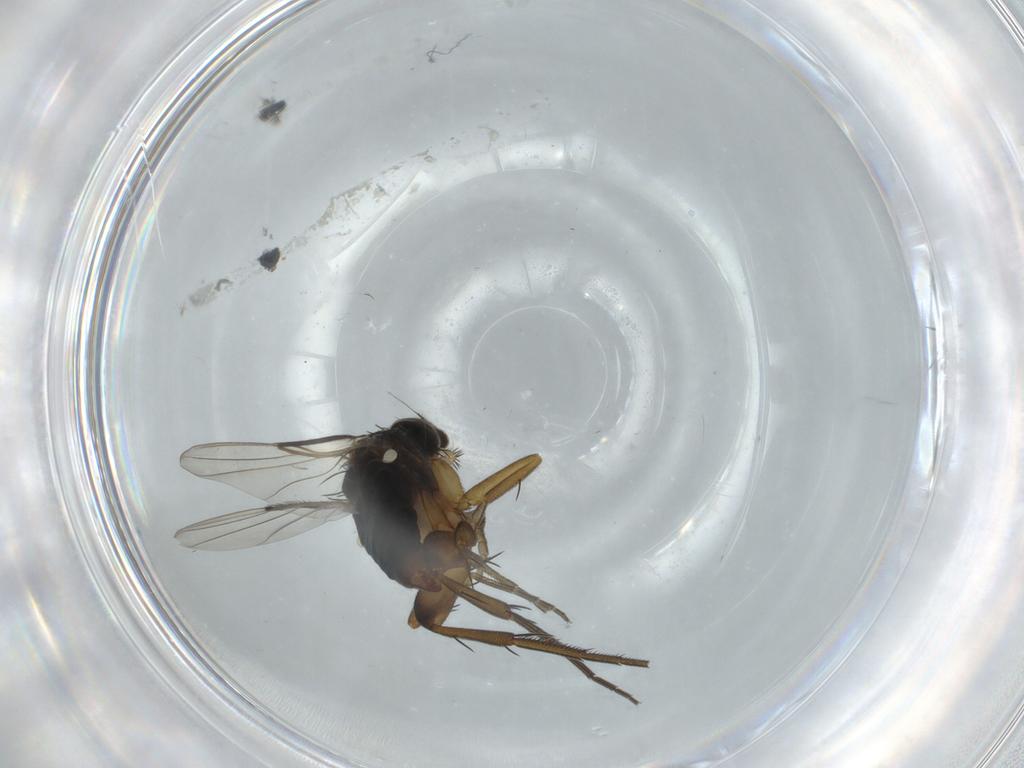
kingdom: Animalia
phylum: Arthropoda
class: Insecta
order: Diptera
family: Phoridae
